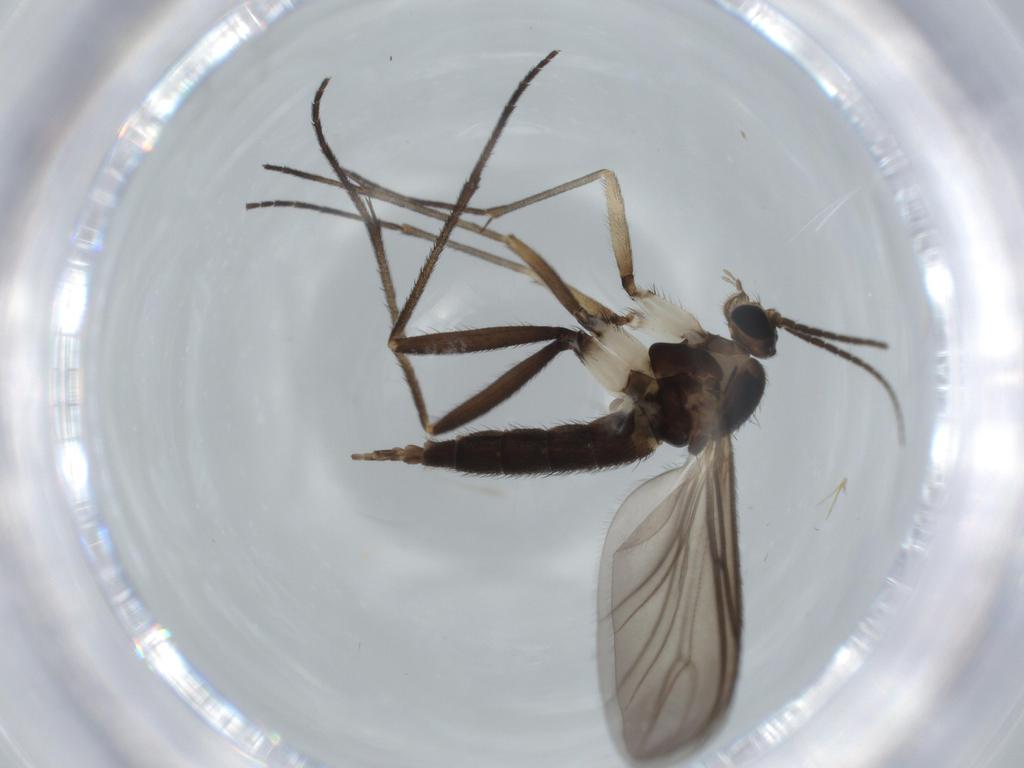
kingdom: Animalia
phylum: Arthropoda
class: Insecta
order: Diptera
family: Sciaridae
